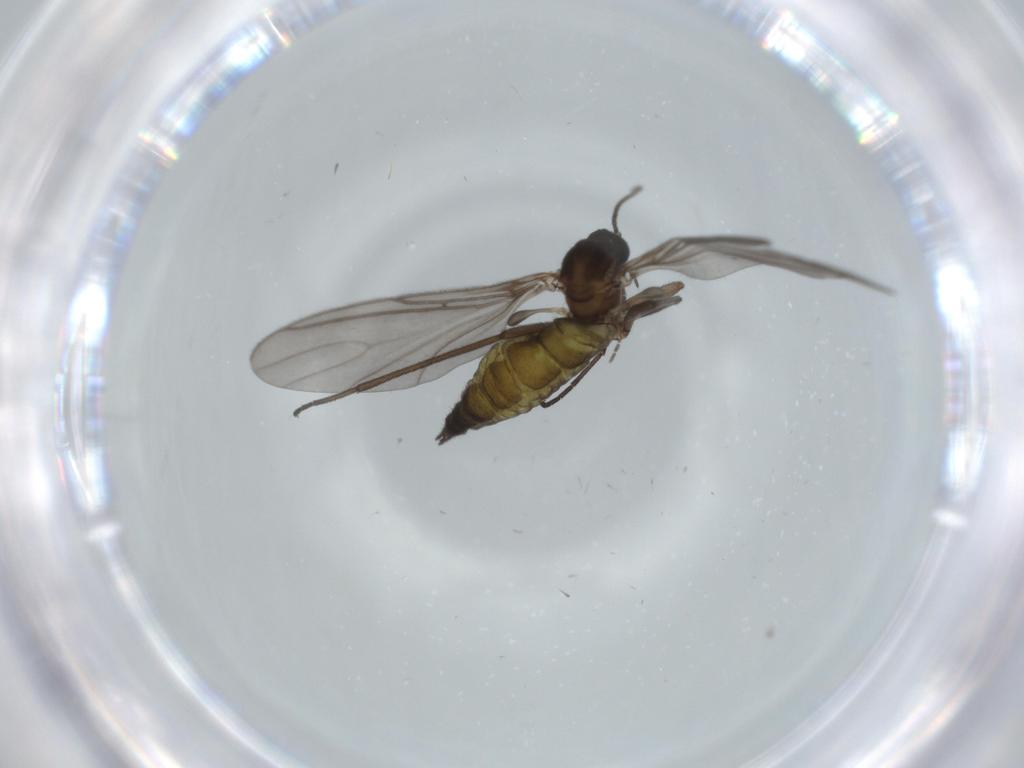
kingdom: Animalia
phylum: Arthropoda
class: Insecta
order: Diptera
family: Sciaridae
